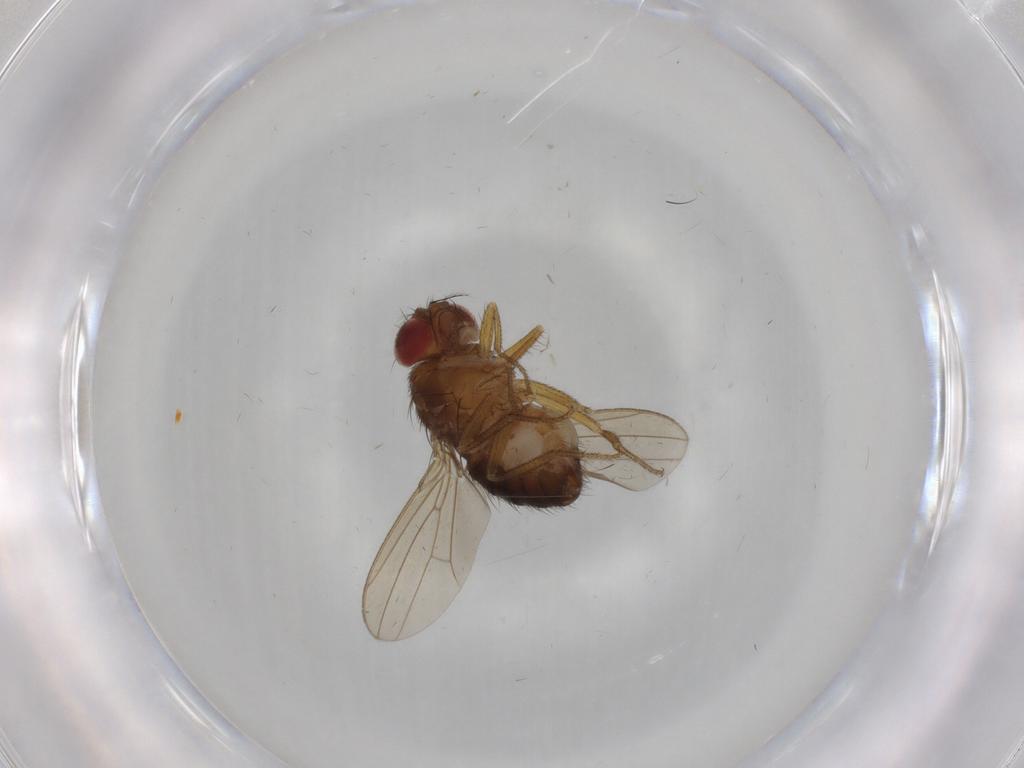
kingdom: Animalia
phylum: Arthropoda
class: Insecta
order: Diptera
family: Drosophilidae
